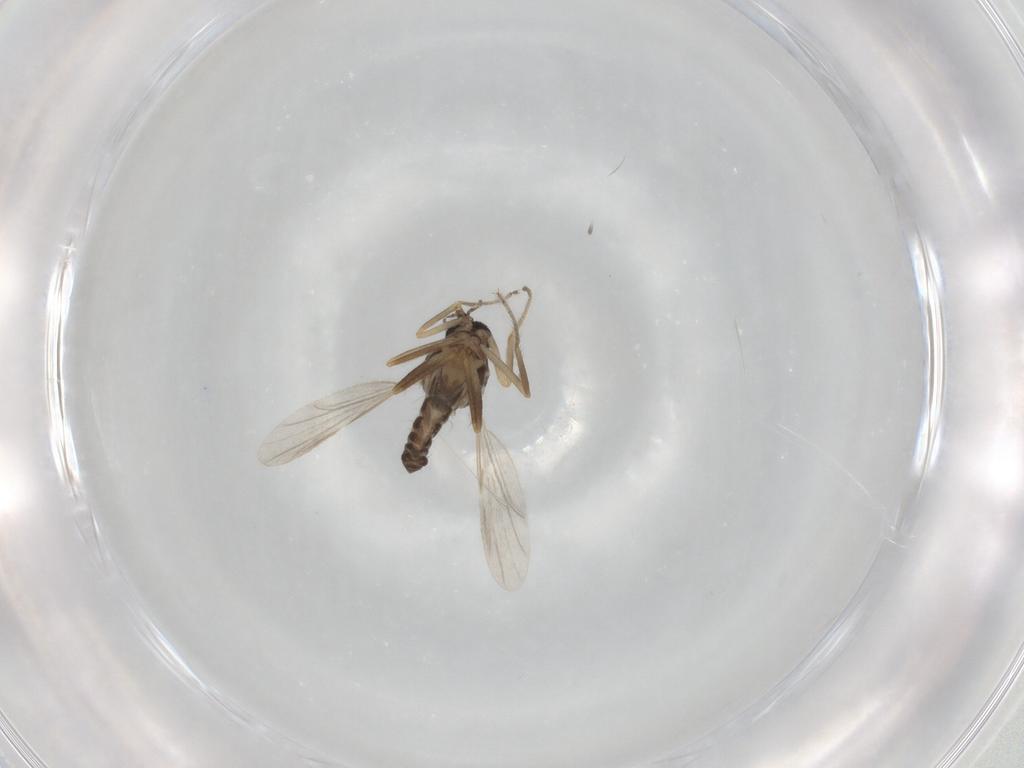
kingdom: Animalia
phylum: Arthropoda
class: Insecta
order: Diptera
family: Ceratopogonidae
